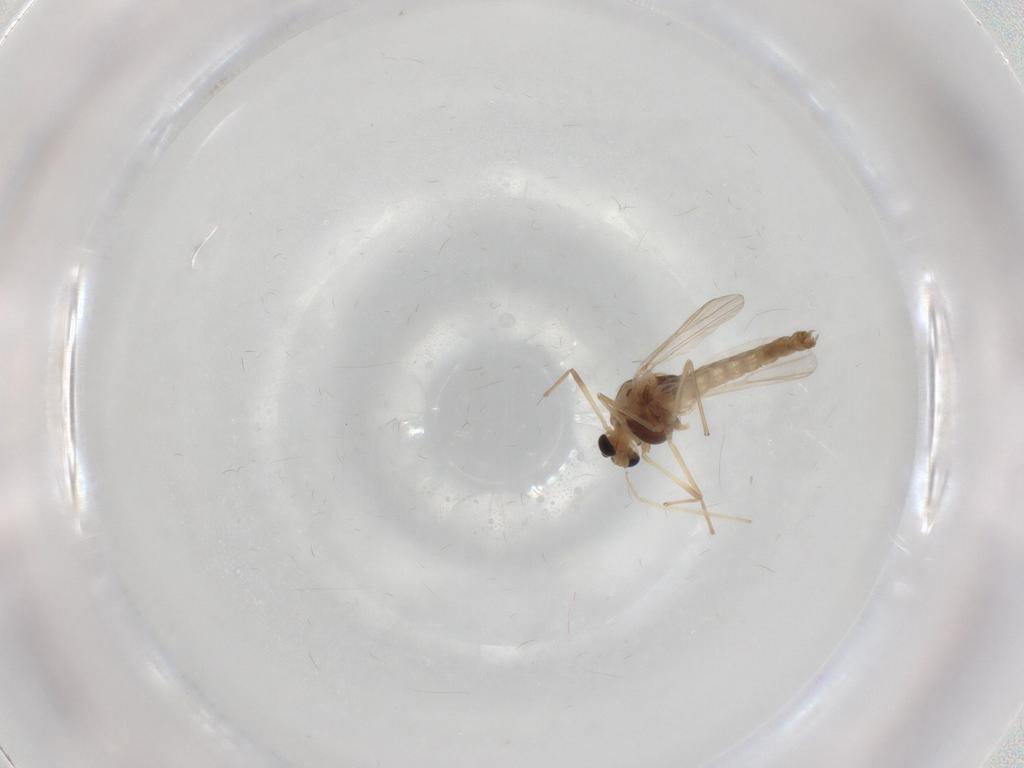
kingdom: Animalia
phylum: Arthropoda
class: Insecta
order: Diptera
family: Chironomidae
